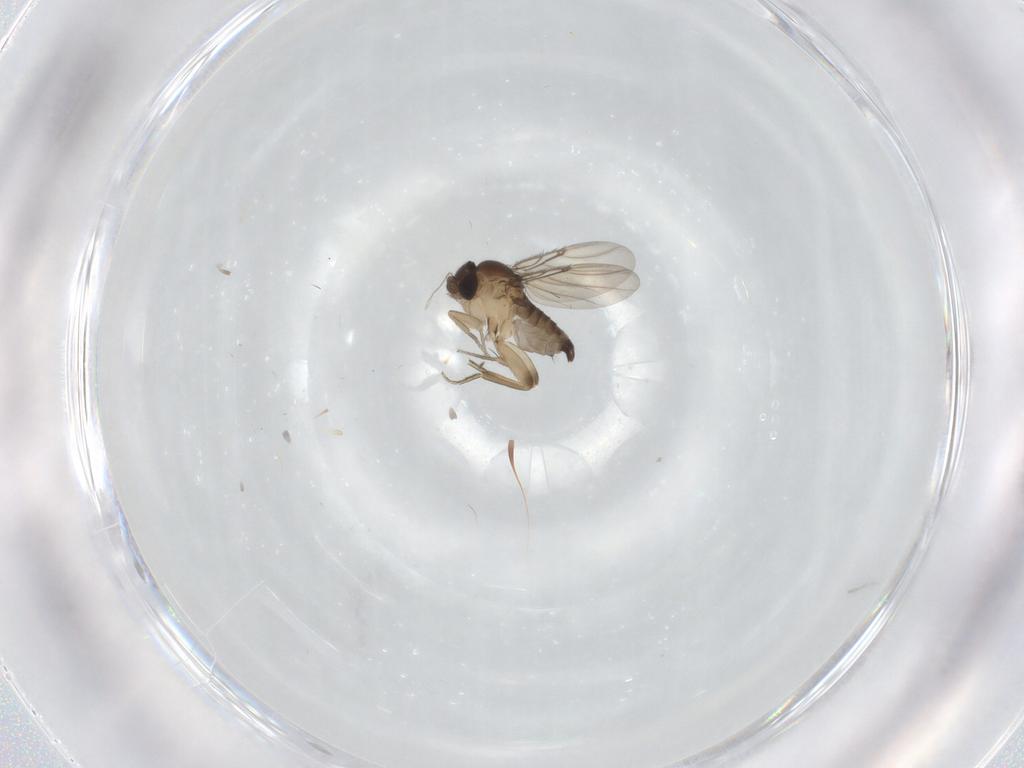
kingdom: Animalia
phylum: Arthropoda
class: Insecta
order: Diptera
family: Phoridae
